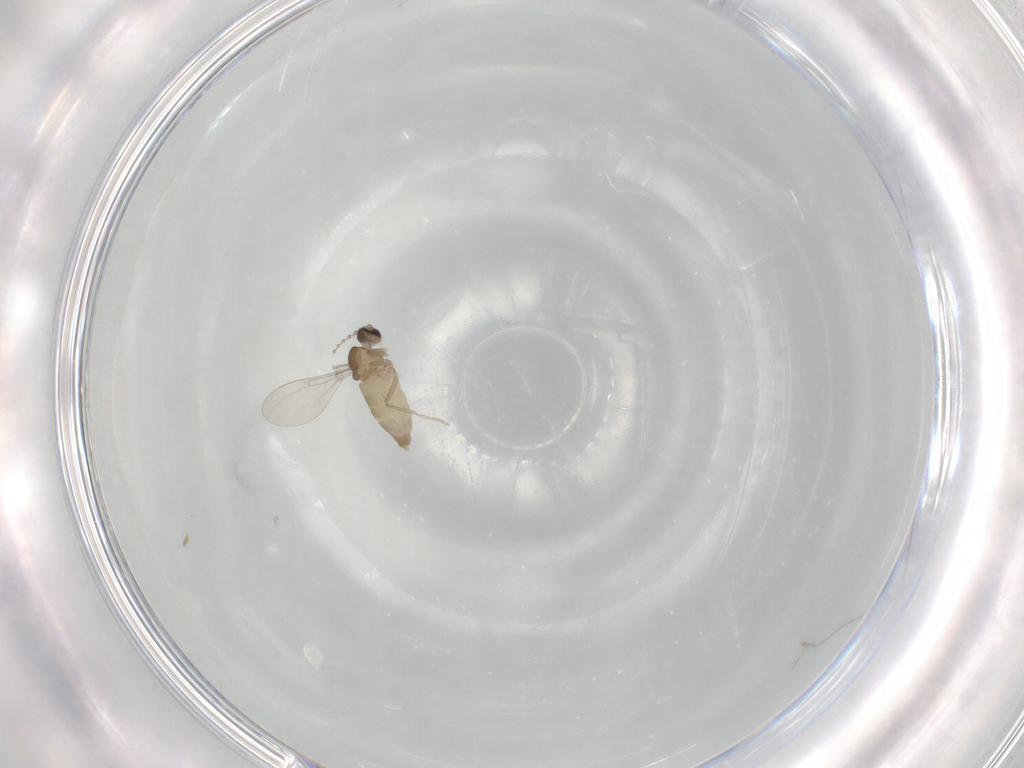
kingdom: Animalia
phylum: Arthropoda
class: Insecta
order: Diptera
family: Cecidomyiidae
